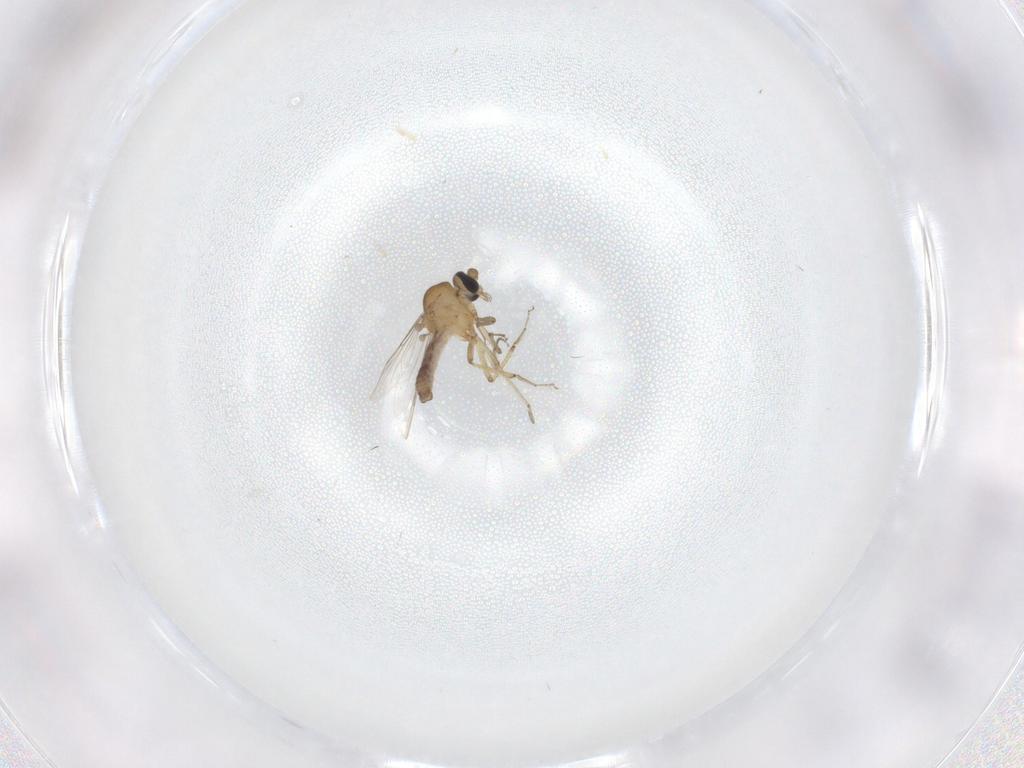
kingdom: Animalia
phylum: Arthropoda
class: Insecta
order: Diptera
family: Ceratopogonidae
